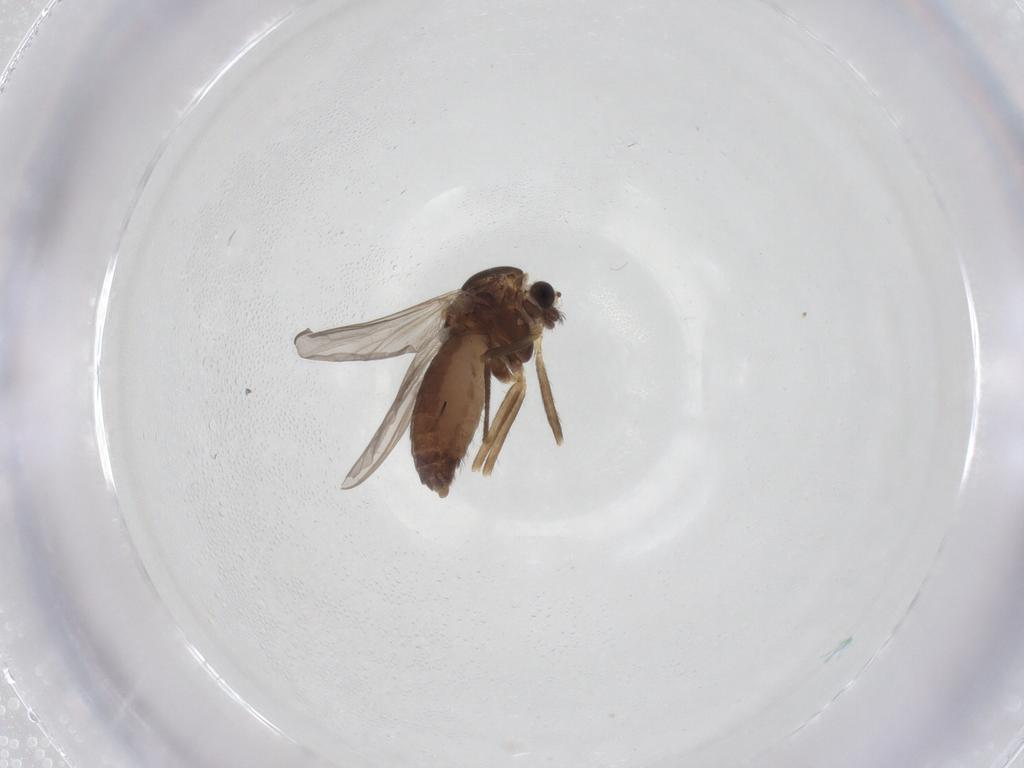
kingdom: Animalia
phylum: Arthropoda
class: Insecta
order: Diptera
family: Chironomidae
